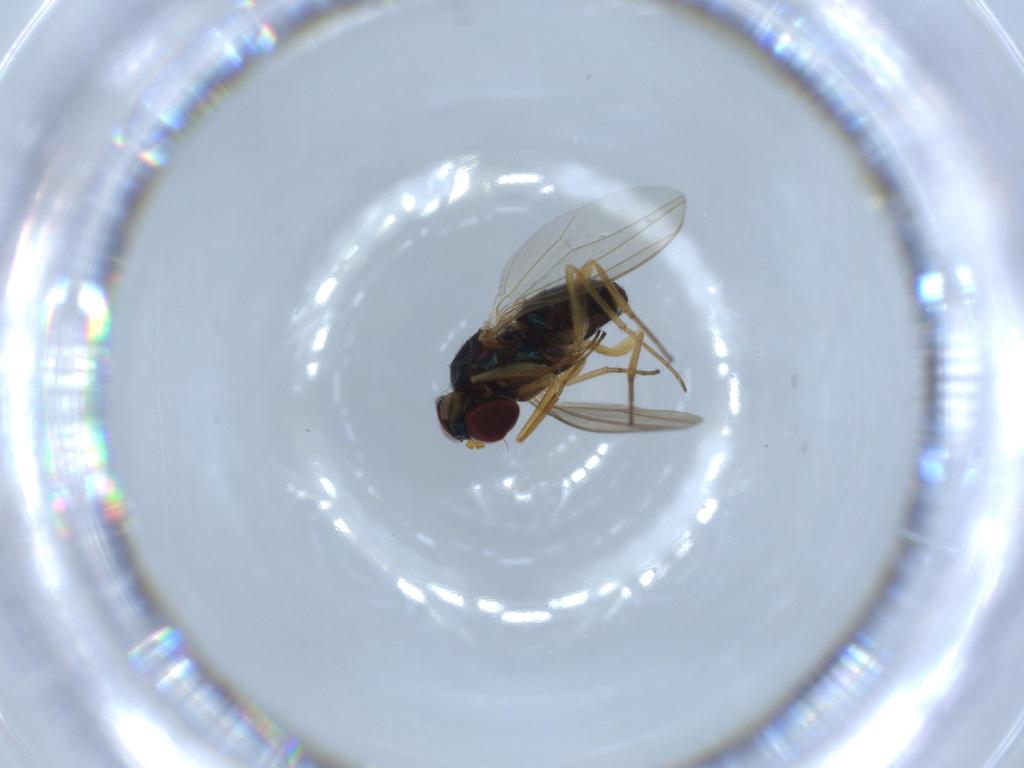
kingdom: Animalia
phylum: Arthropoda
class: Insecta
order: Diptera
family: Dolichopodidae
